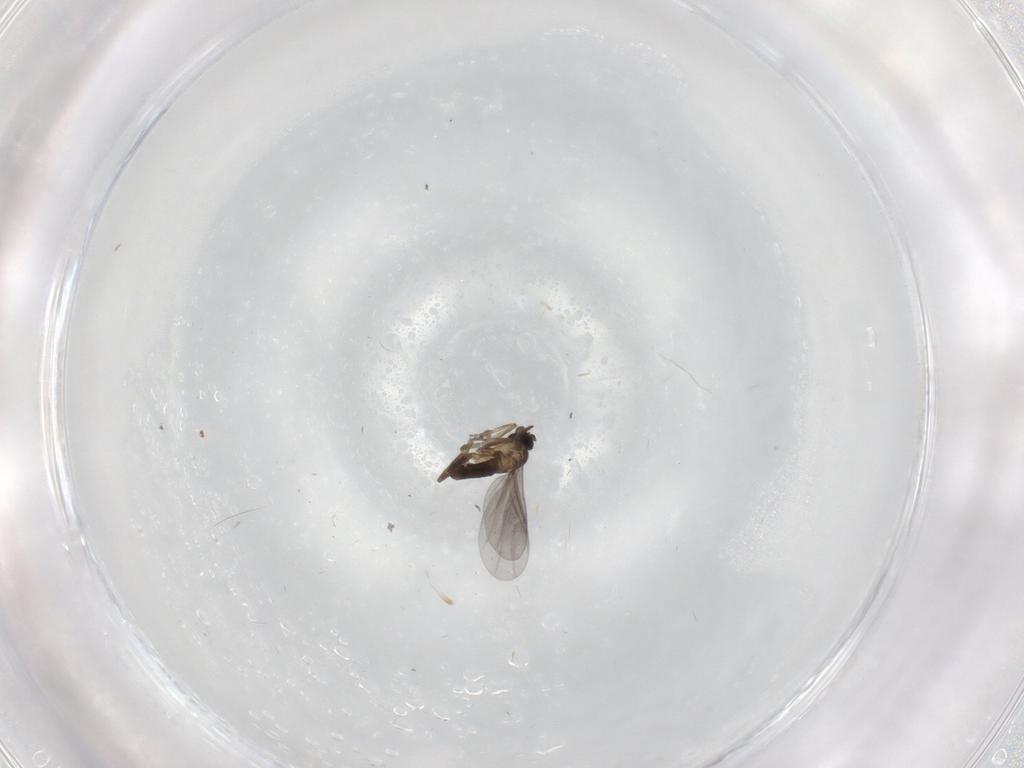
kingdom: Animalia
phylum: Arthropoda
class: Insecta
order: Diptera
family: Cecidomyiidae
